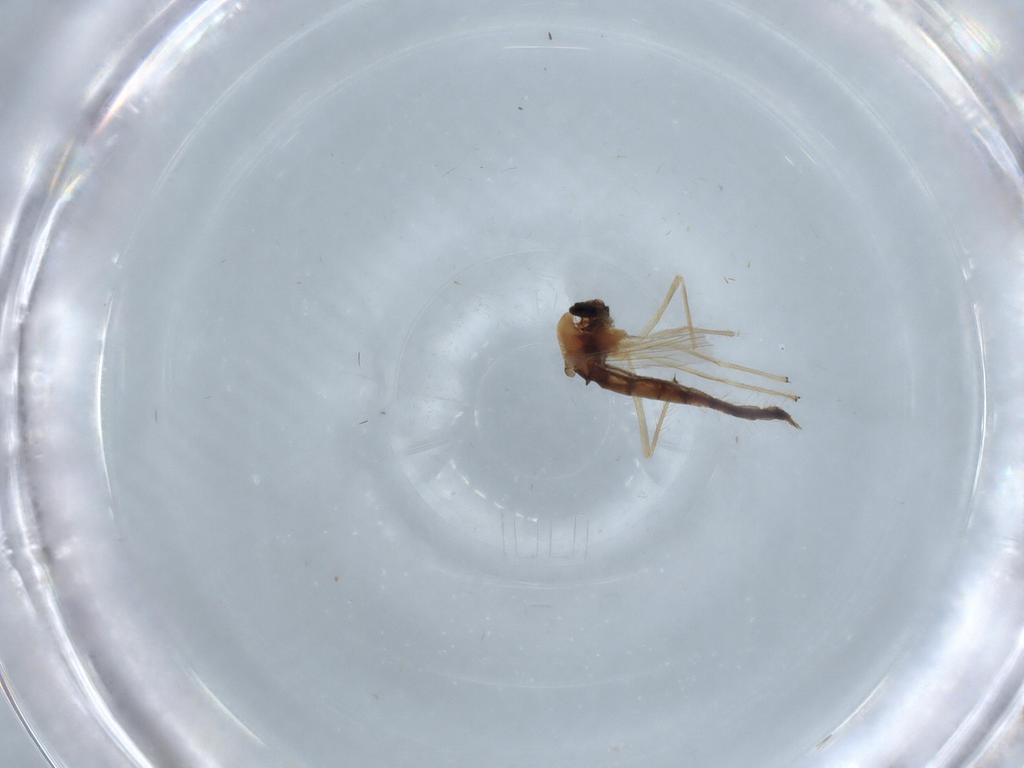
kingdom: Animalia
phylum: Arthropoda
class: Insecta
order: Diptera
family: Chironomidae
